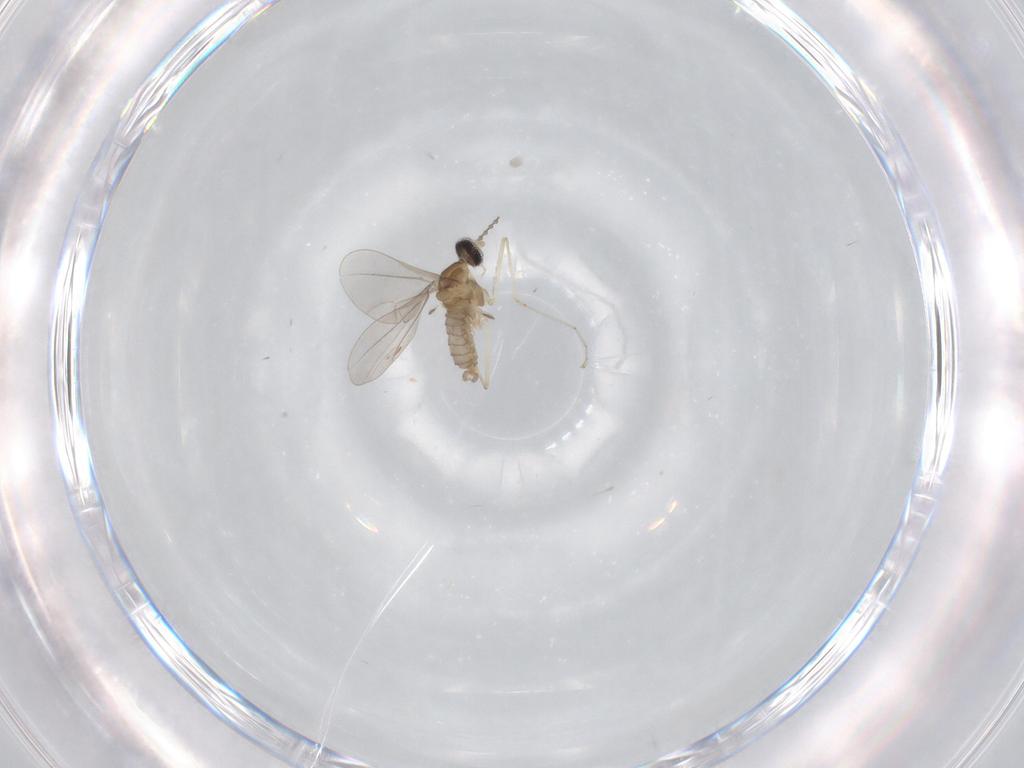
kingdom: Animalia
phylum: Arthropoda
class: Insecta
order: Diptera
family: Cecidomyiidae
